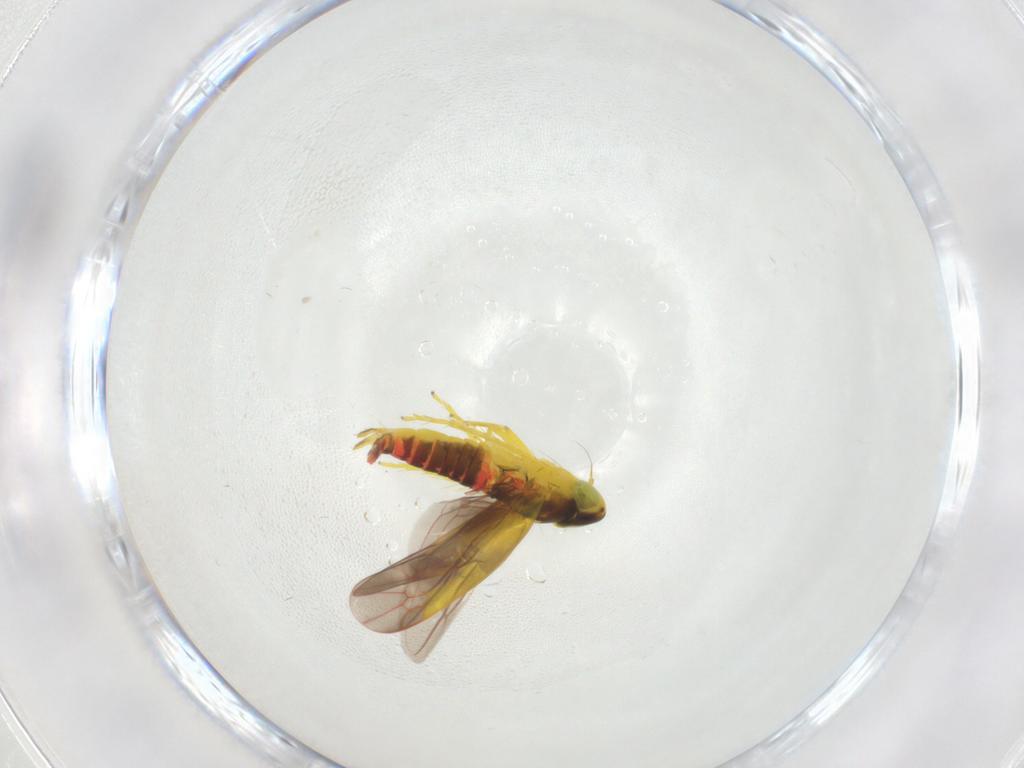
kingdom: Animalia
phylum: Arthropoda
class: Insecta
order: Hemiptera
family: Cicadellidae
